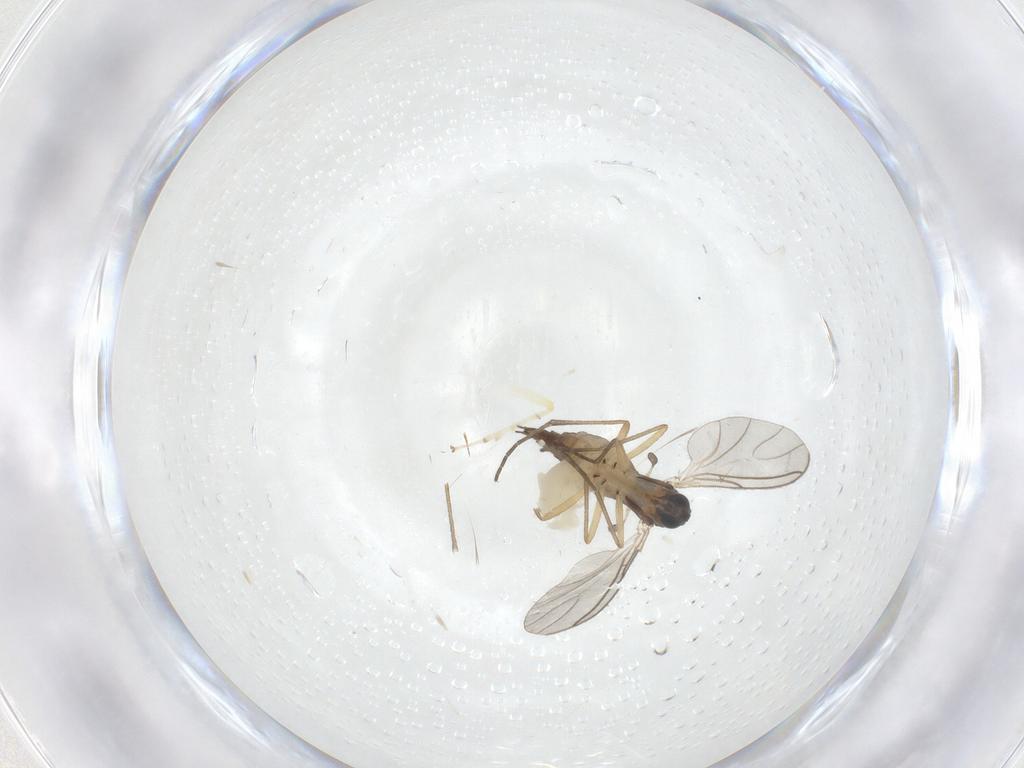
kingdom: Animalia
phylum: Arthropoda
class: Insecta
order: Diptera
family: Sciaridae
